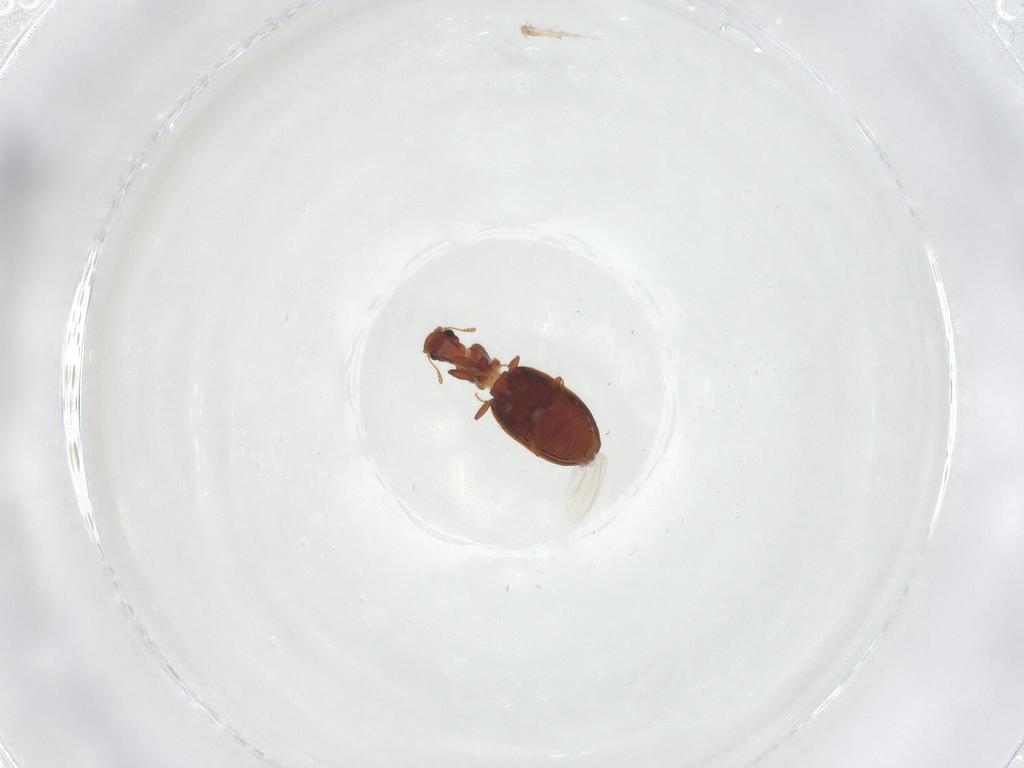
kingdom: Animalia
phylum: Arthropoda
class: Insecta
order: Coleoptera
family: Latridiidae
